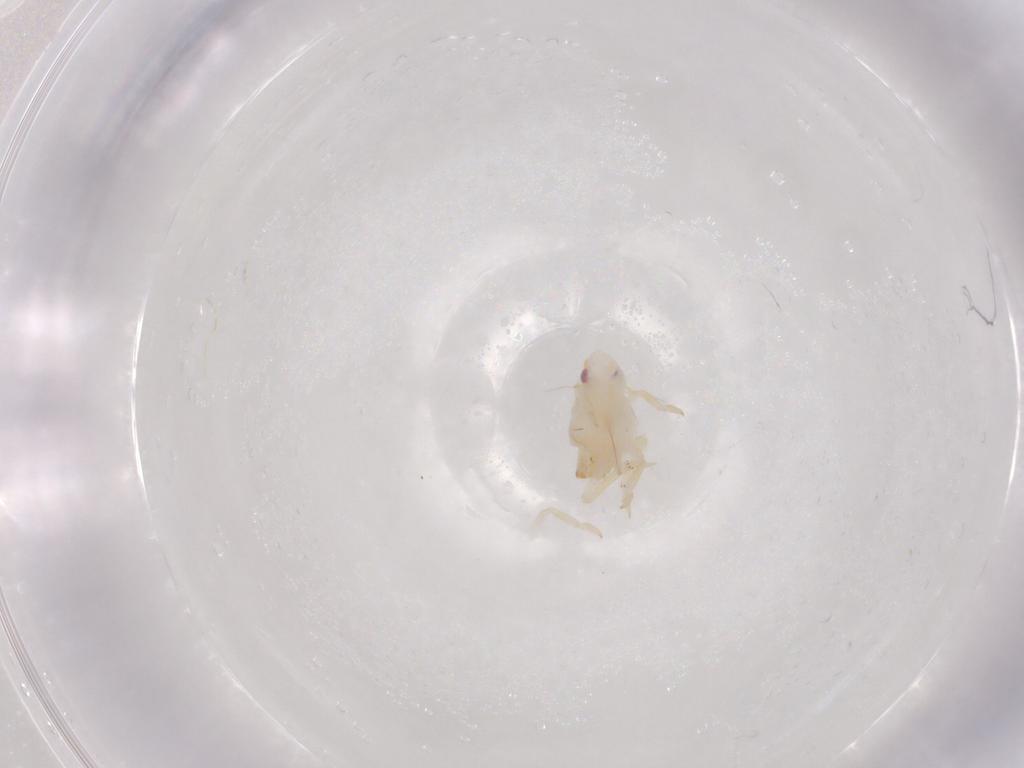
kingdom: Animalia
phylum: Arthropoda
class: Insecta
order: Hemiptera
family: Flatidae
